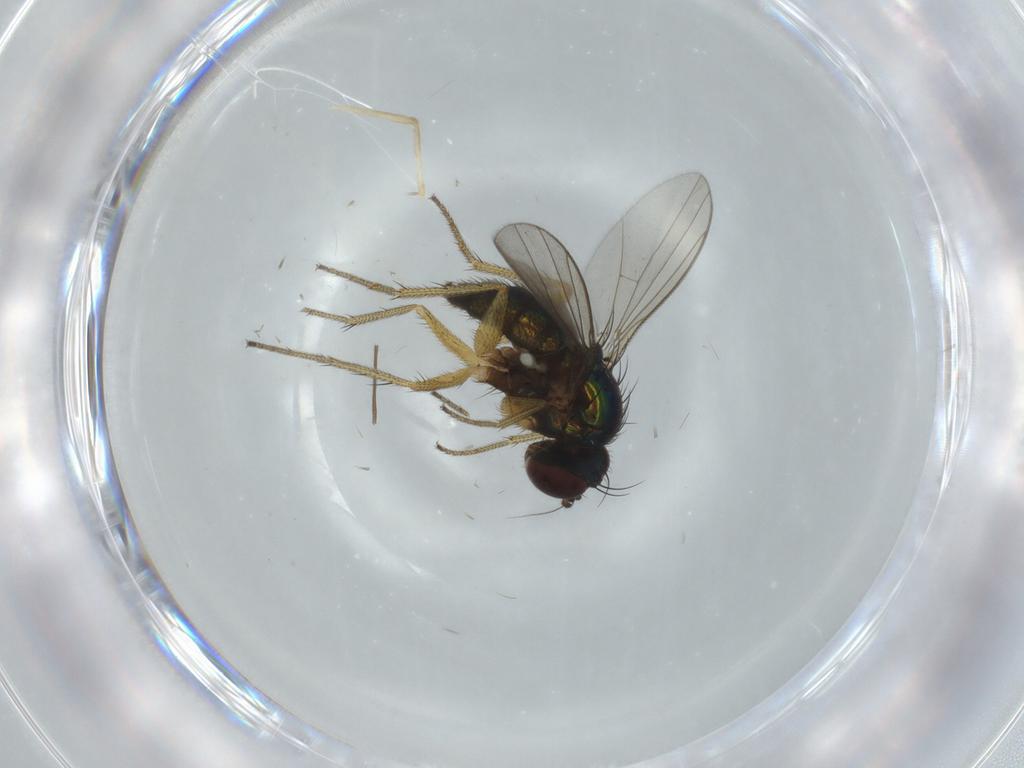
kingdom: Animalia
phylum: Arthropoda
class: Insecta
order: Diptera
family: Dolichopodidae
